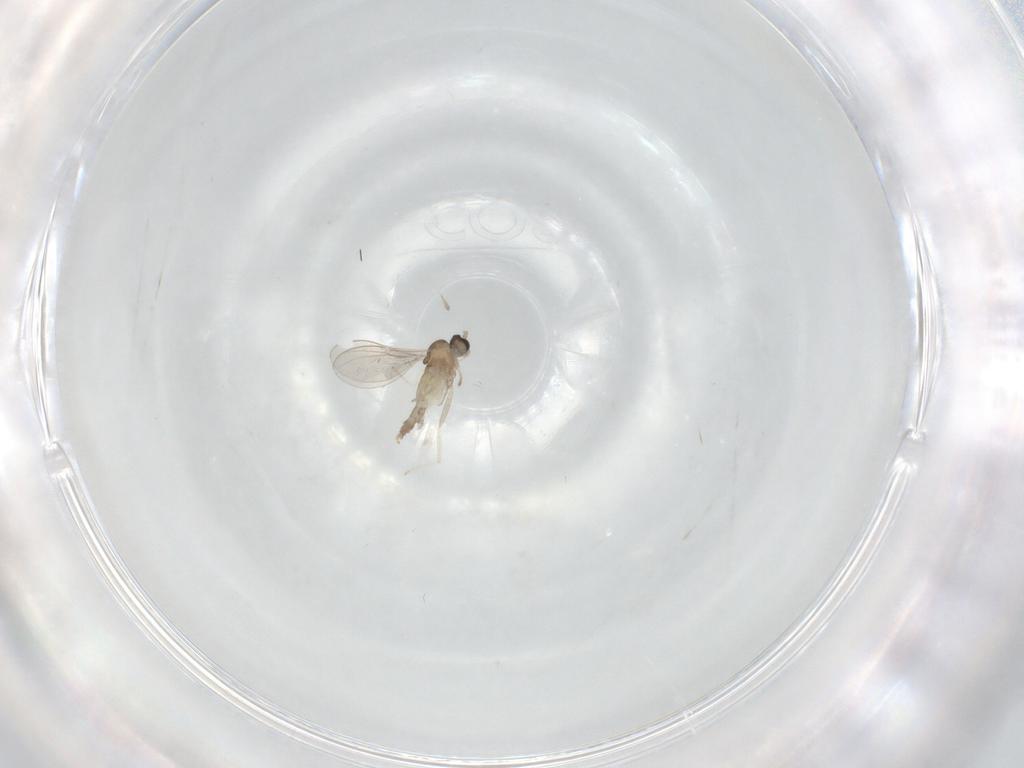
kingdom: Animalia
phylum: Arthropoda
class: Insecta
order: Diptera
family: Cecidomyiidae
